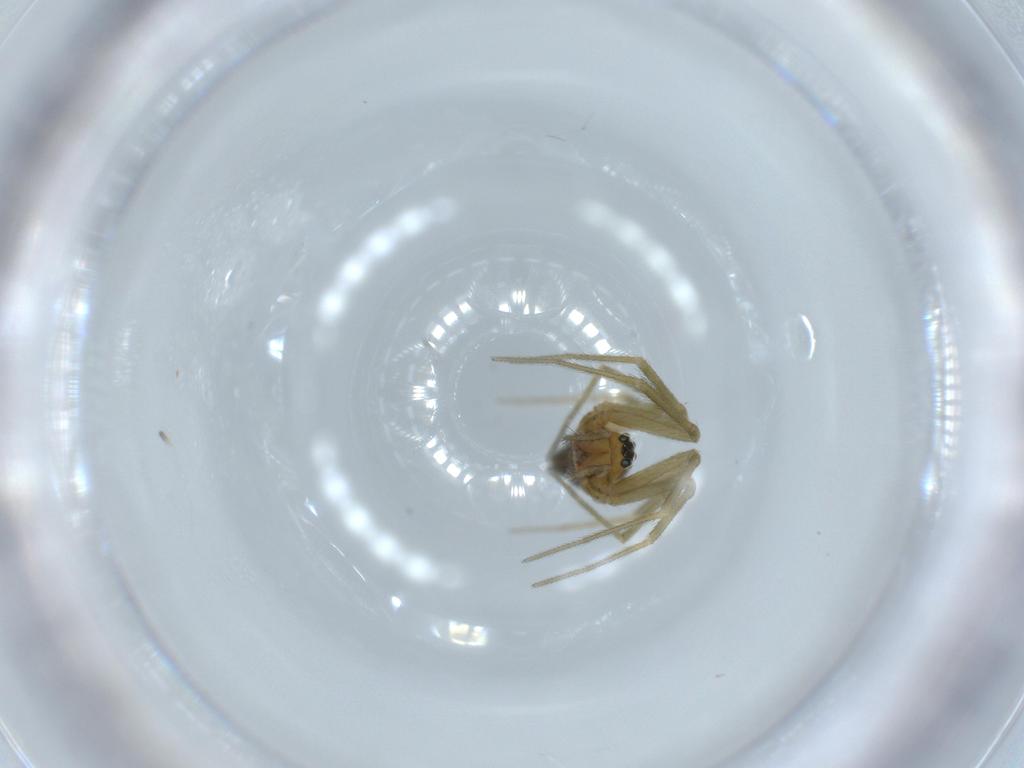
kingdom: Animalia
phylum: Arthropoda
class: Arachnida
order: Araneae
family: Linyphiidae
